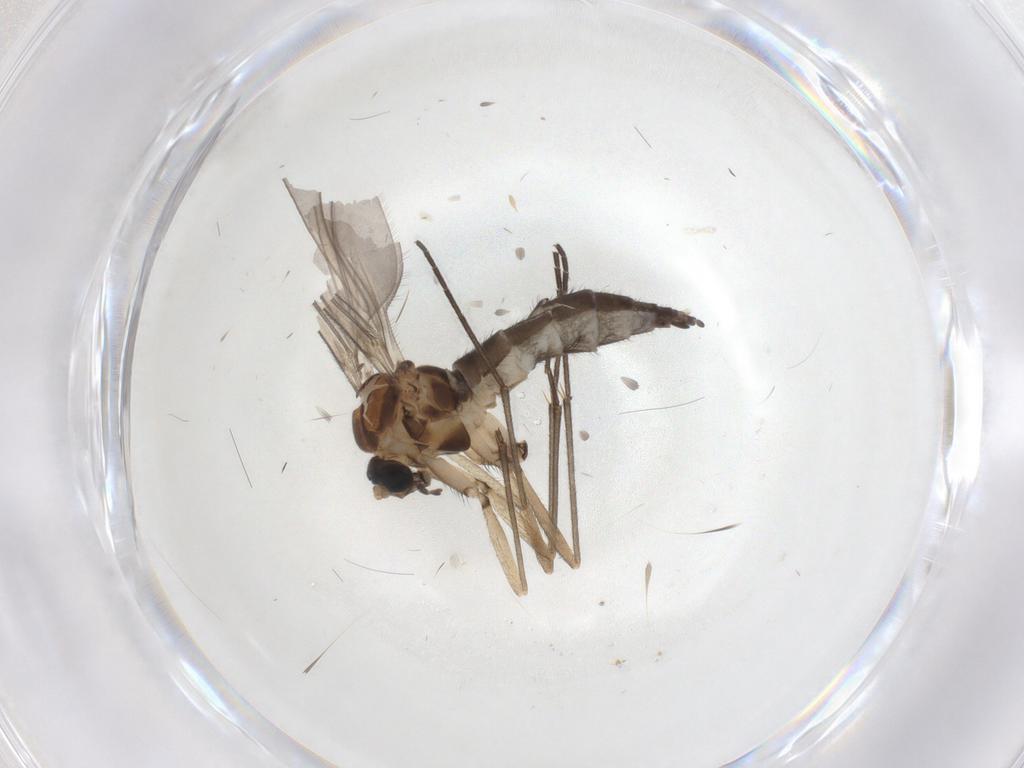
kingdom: Animalia
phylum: Arthropoda
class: Insecta
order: Diptera
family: Sciaridae
